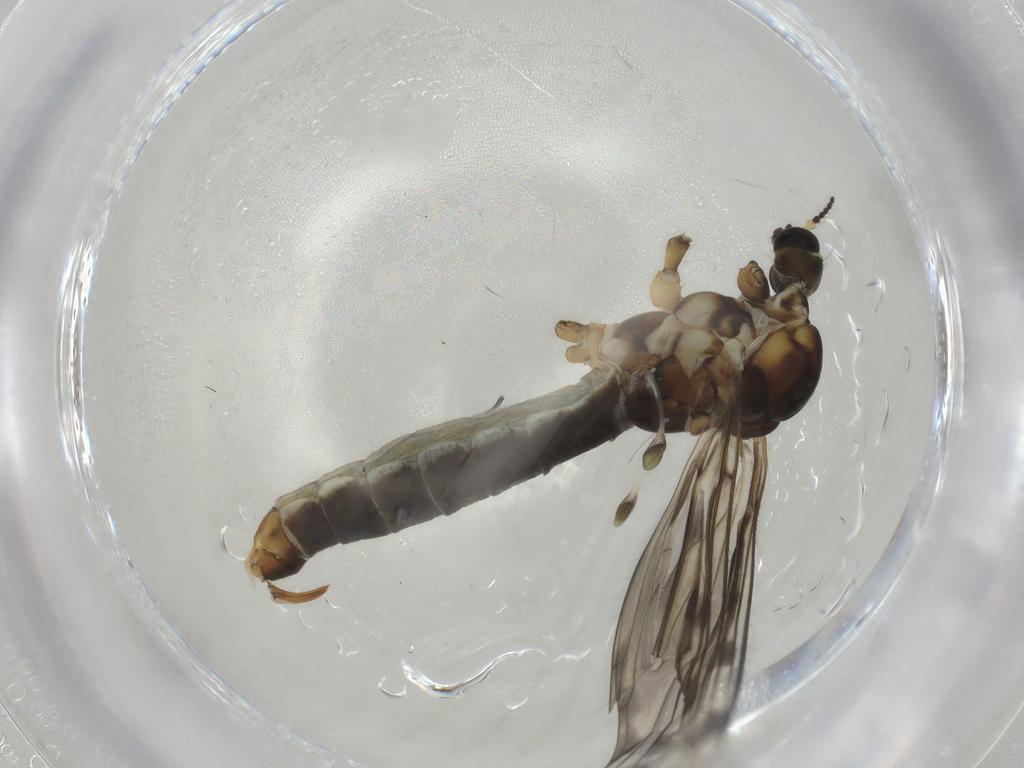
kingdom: Animalia
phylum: Arthropoda
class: Insecta
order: Diptera
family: Limoniidae
